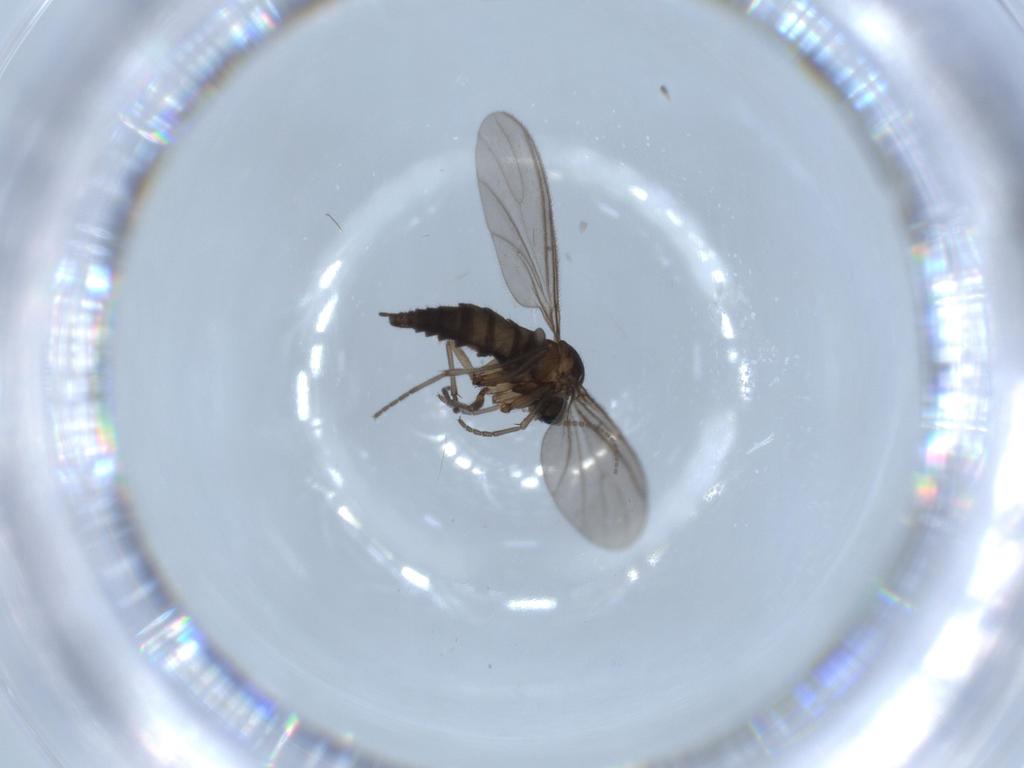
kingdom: Animalia
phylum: Arthropoda
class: Insecta
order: Diptera
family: Sciaridae
